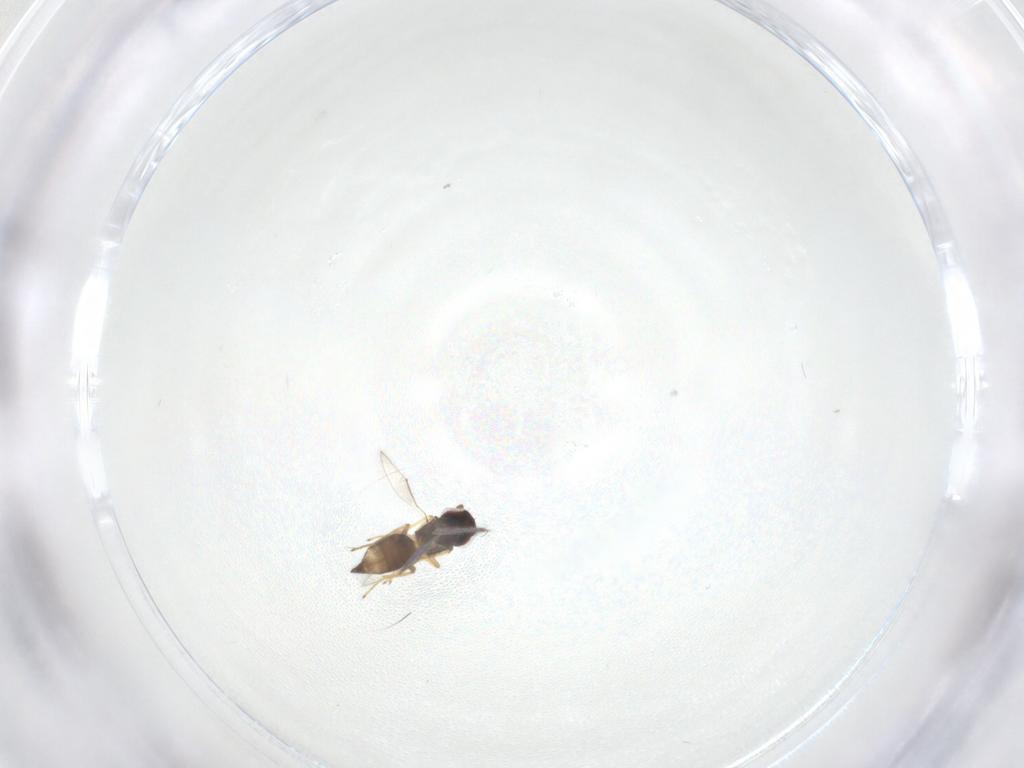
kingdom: Animalia
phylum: Arthropoda
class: Insecta
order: Hymenoptera
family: Eulophidae
